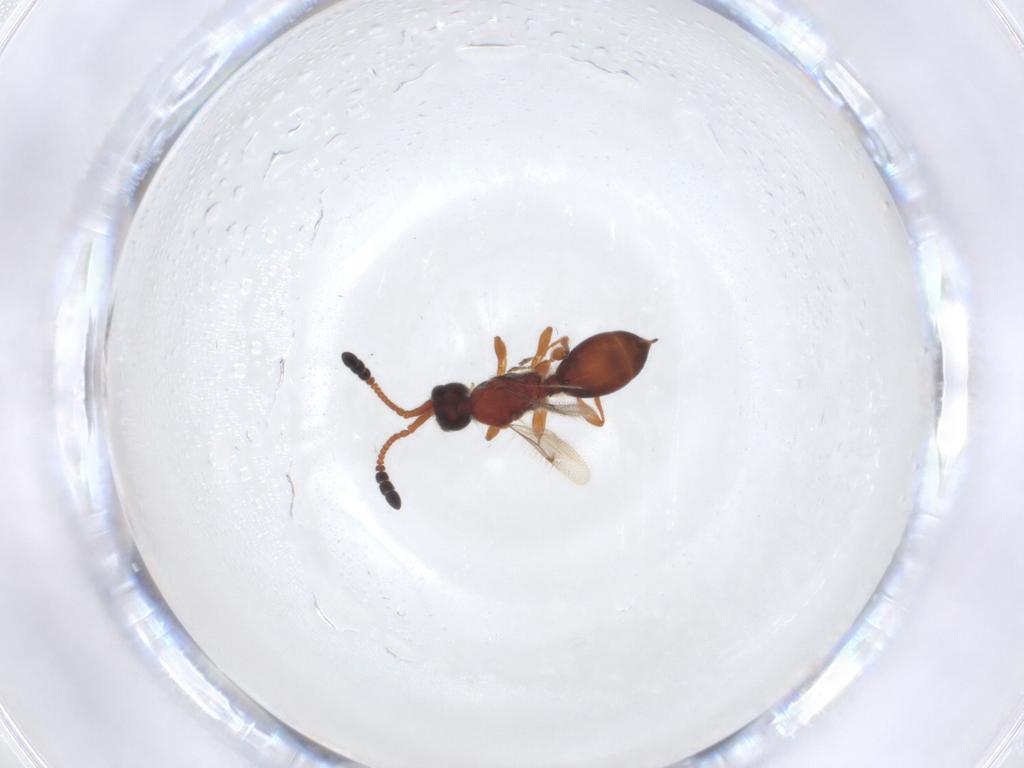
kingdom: Animalia
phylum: Arthropoda
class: Insecta
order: Hymenoptera
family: Diapriidae
